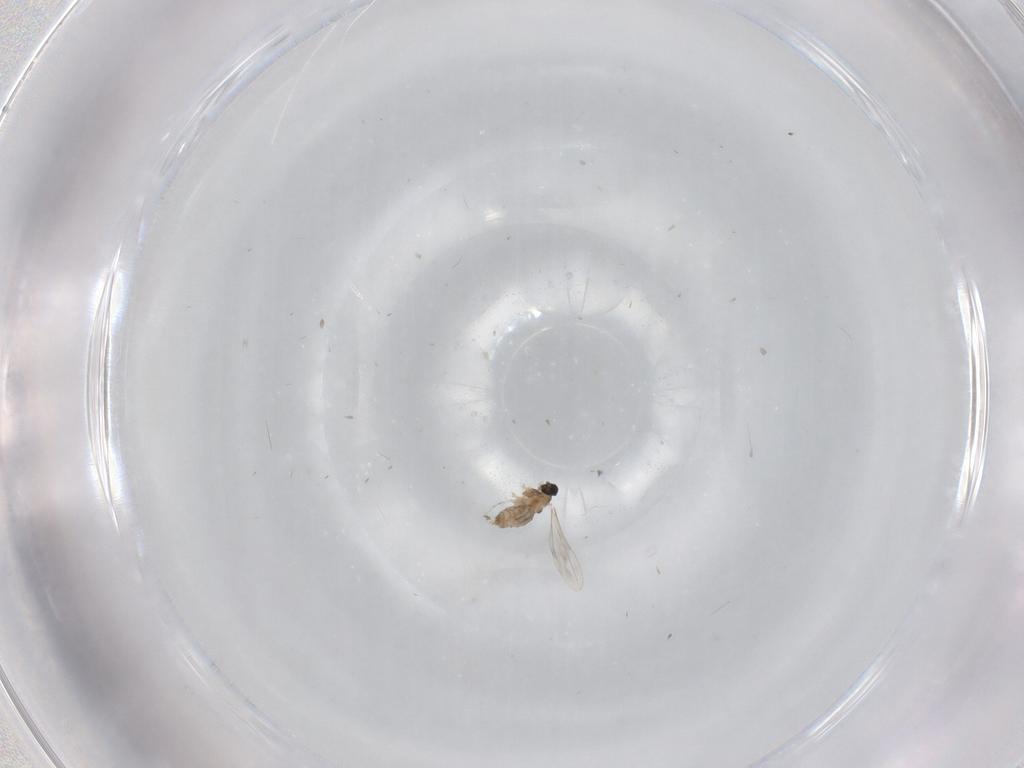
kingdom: Animalia
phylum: Arthropoda
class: Insecta
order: Diptera
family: Cecidomyiidae
